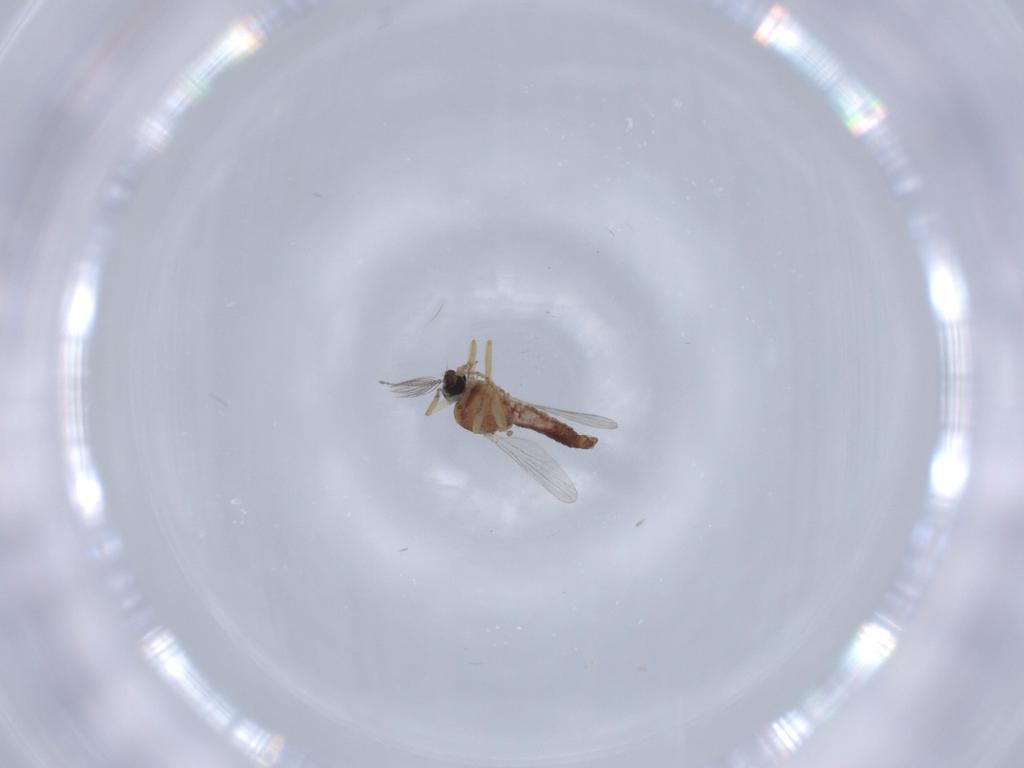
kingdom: Animalia
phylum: Arthropoda
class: Insecta
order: Diptera
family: Ceratopogonidae
